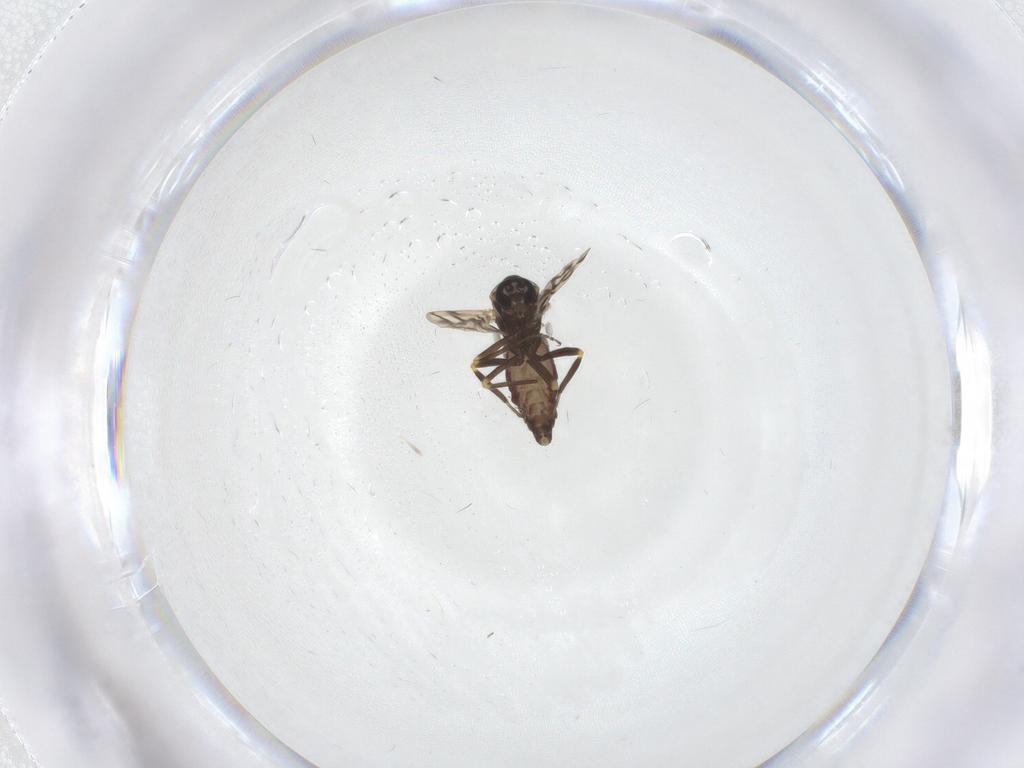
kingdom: Animalia
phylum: Arthropoda
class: Insecta
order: Diptera
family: Ceratopogonidae
